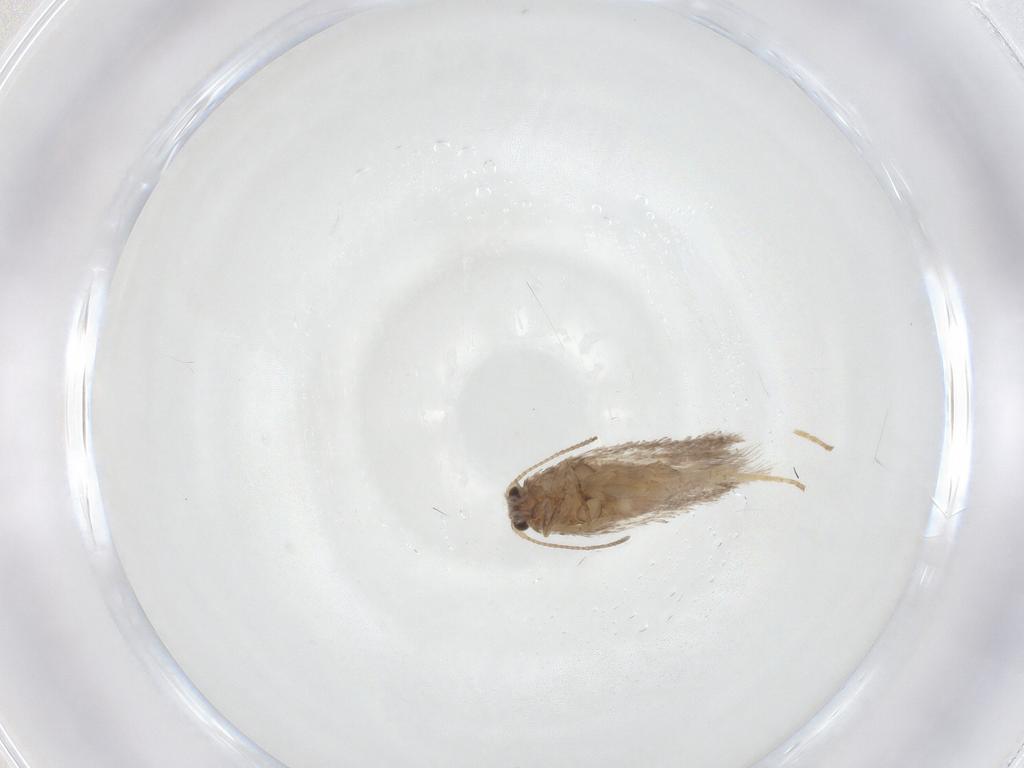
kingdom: Animalia
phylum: Arthropoda
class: Insecta
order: Lepidoptera
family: Nepticulidae
